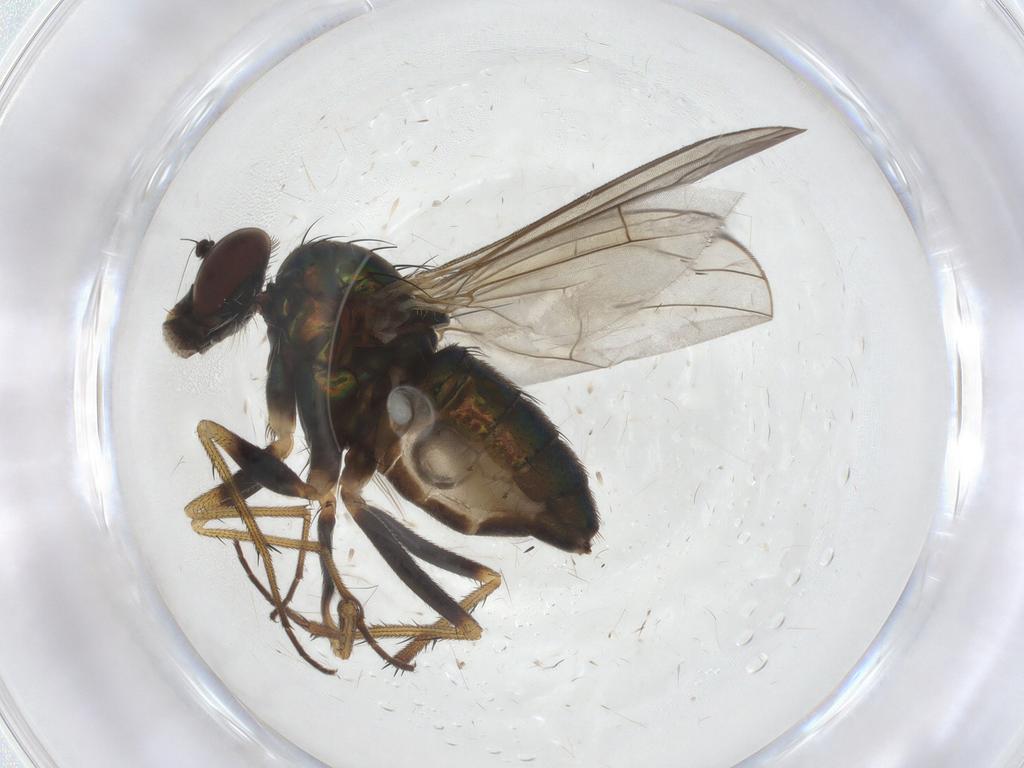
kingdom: Animalia
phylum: Arthropoda
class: Insecta
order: Diptera
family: Dolichopodidae
